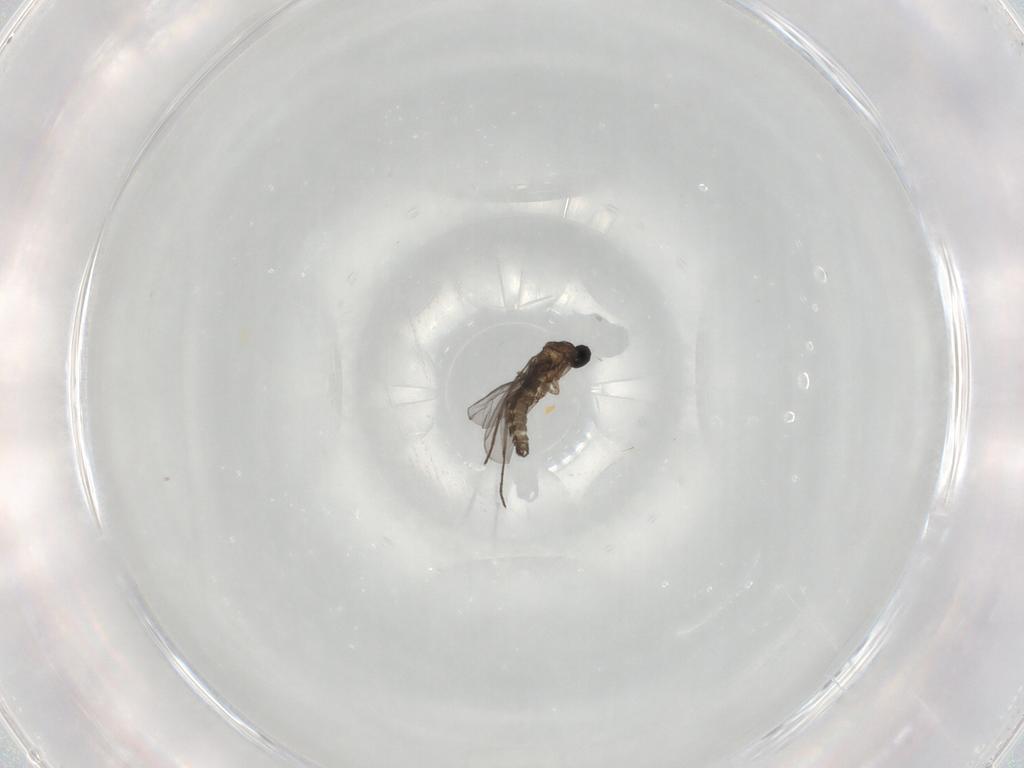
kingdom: Animalia
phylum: Arthropoda
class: Insecta
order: Diptera
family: Sciaridae
